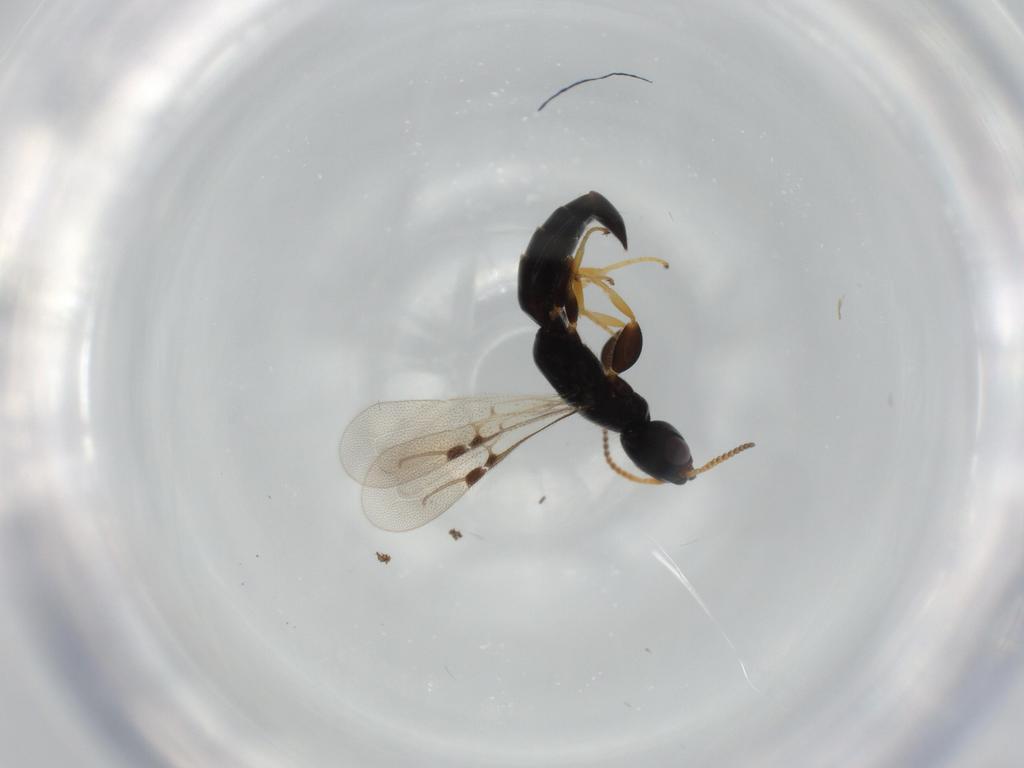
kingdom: Animalia
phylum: Arthropoda
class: Insecta
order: Hymenoptera
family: Bethylidae
